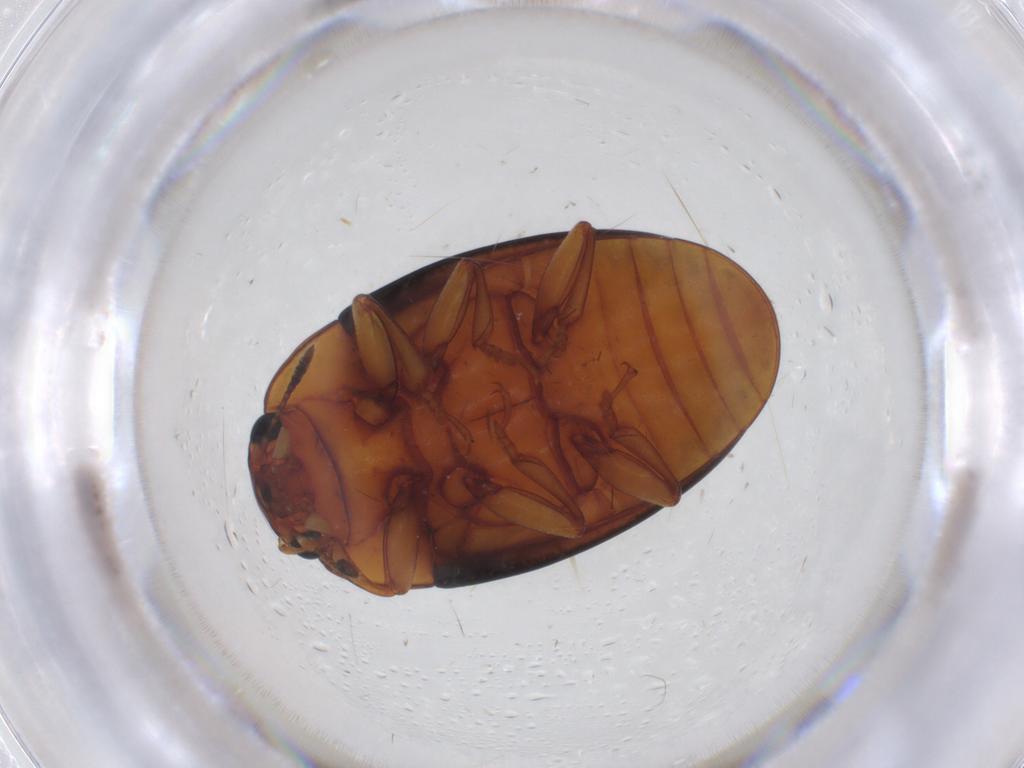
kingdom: Animalia
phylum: Arthropoda
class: Insecta
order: Coleoptera
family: Erotylidae
